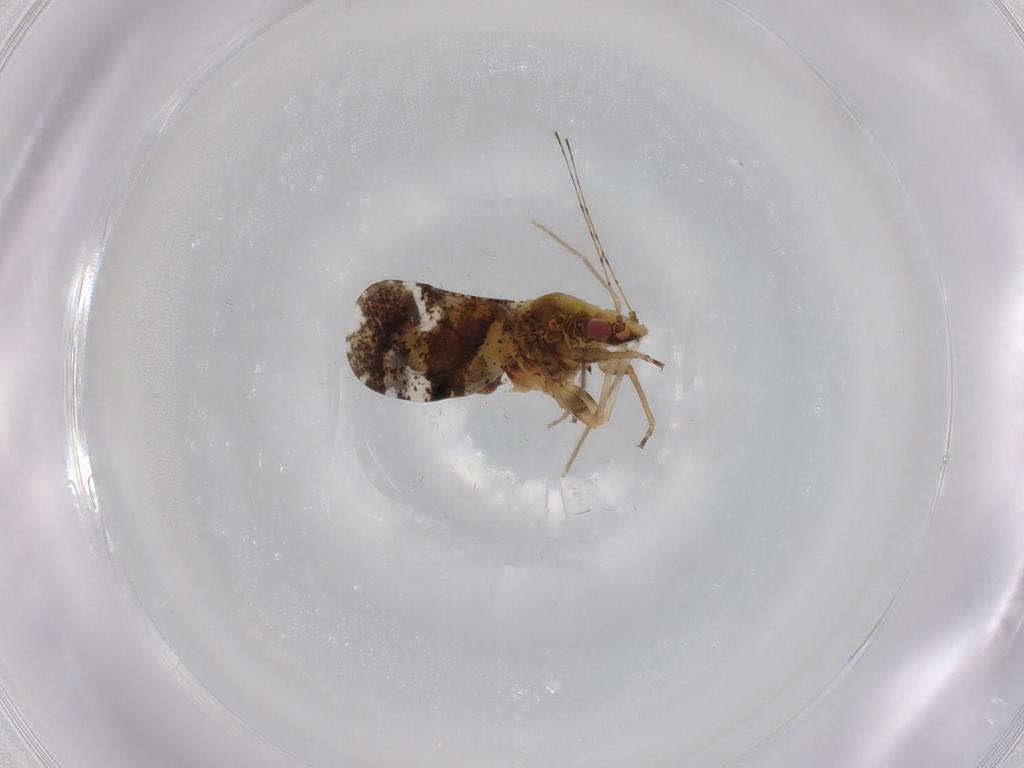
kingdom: Animalia
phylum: Arthropoda
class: Insecta
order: Hemiptera
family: Psyllidae
